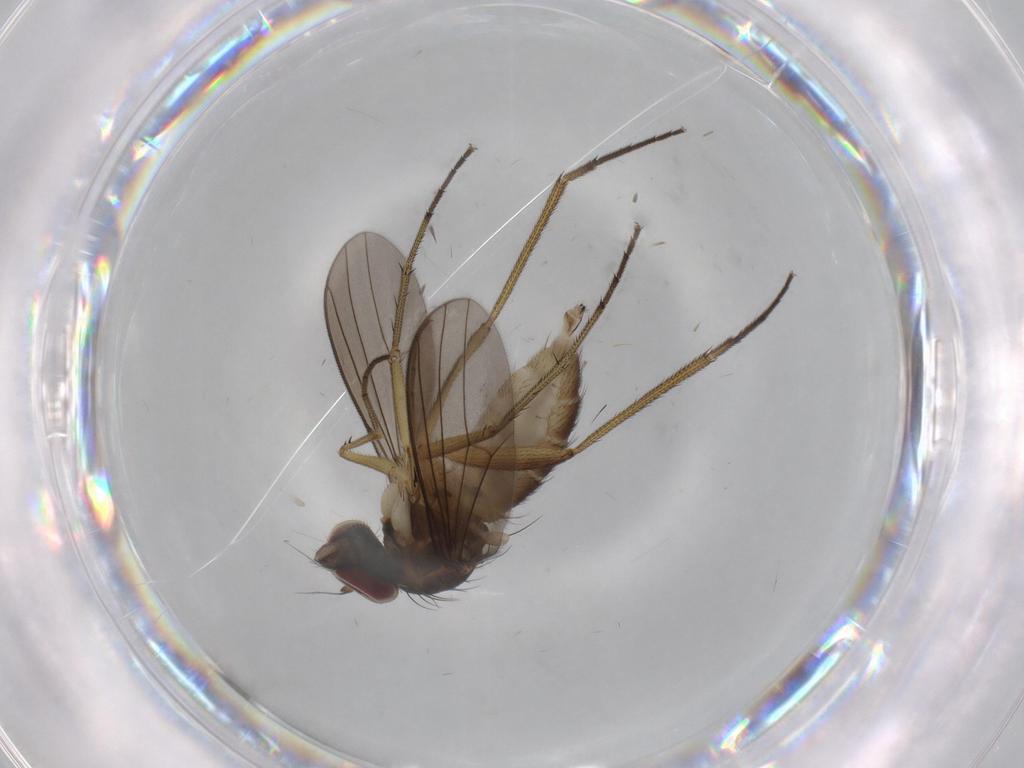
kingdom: Animalia
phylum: Arthropoda
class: Insecta
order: Diptera
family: Dolichopodidae
